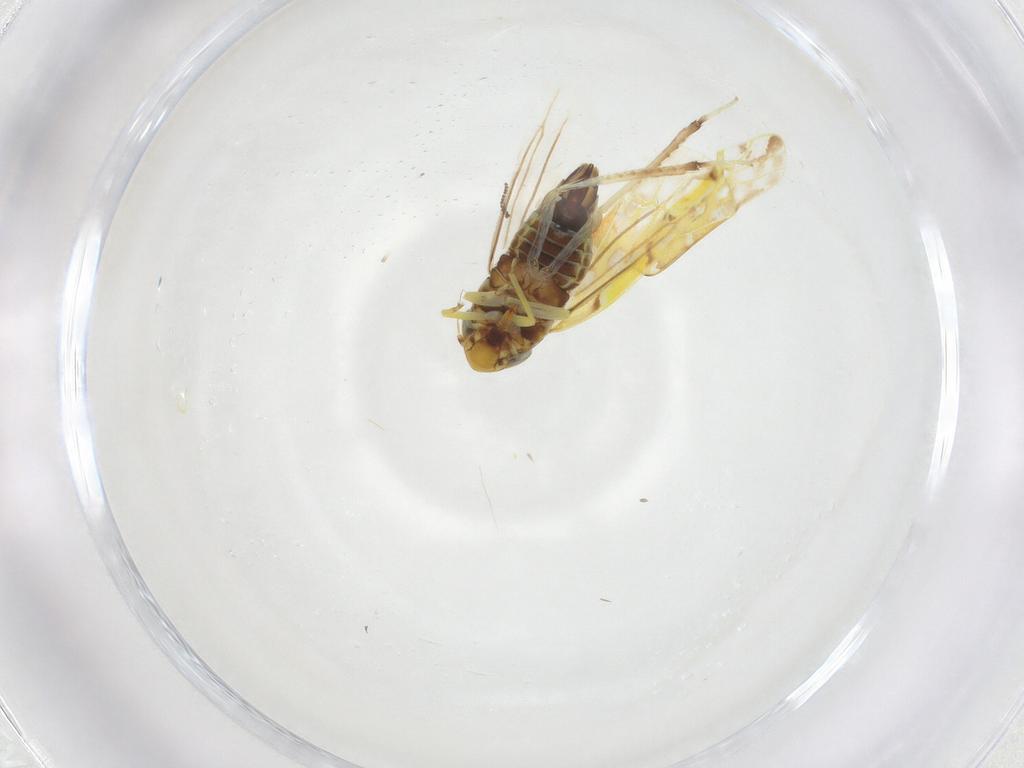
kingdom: Animalia
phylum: Arthropoda
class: Insecta
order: Hemiptera
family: Cicadellidae
